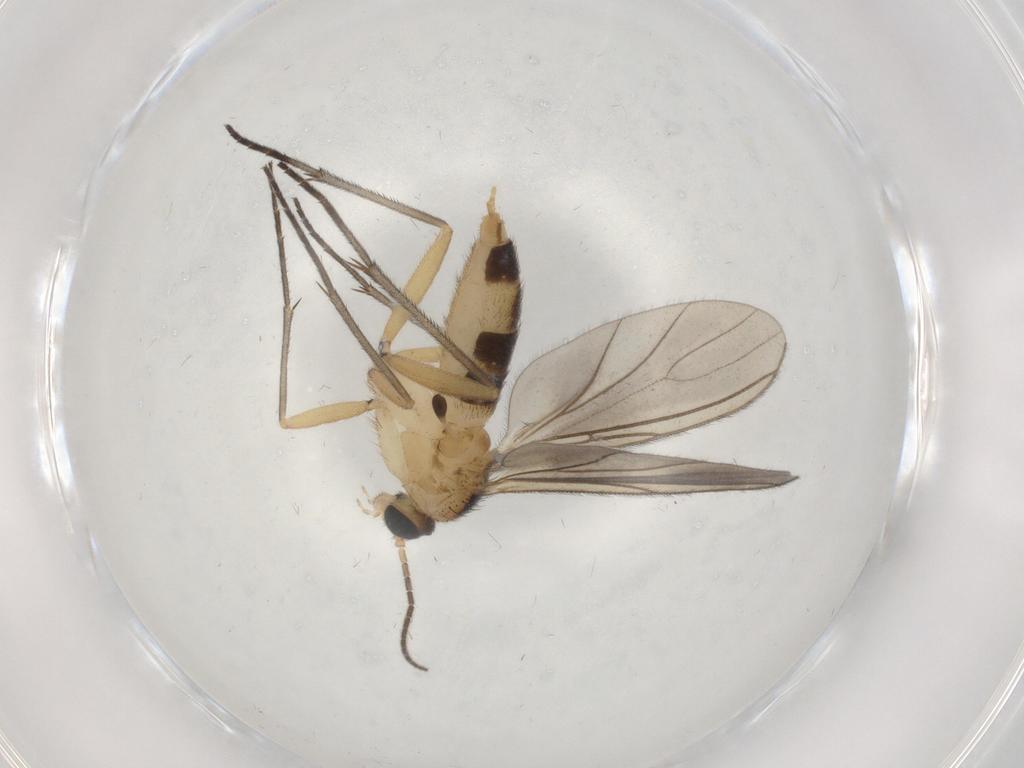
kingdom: Animalia
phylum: Arthropoda
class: Insecta
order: Diptera
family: Sciaridae
